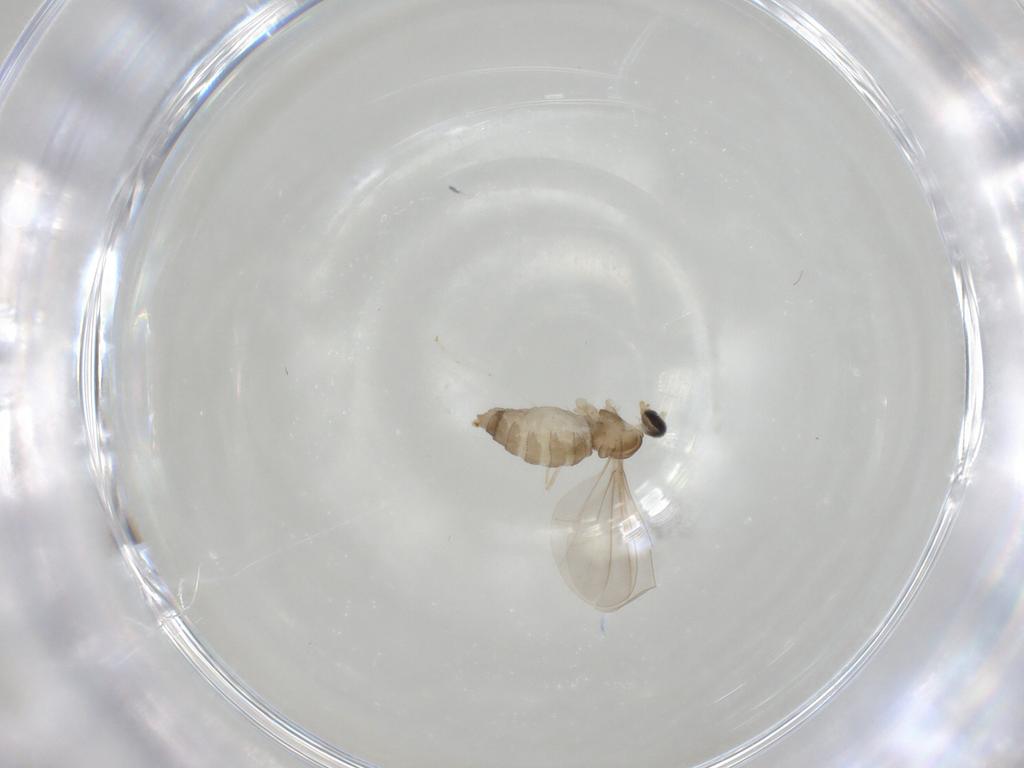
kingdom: Animalia
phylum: Arthropoda
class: Insecta
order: Diptera
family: Cecidomyiidae
